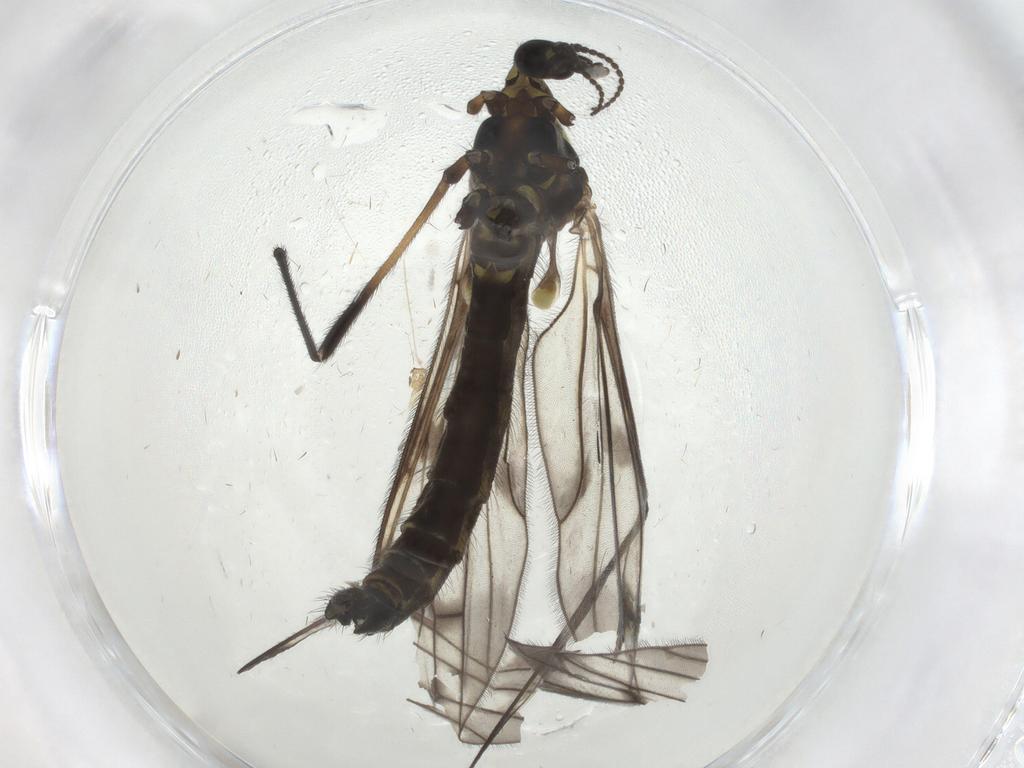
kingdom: Animalia
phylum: Arthropoda
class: Insecta
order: Diptera
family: Limoniidae
